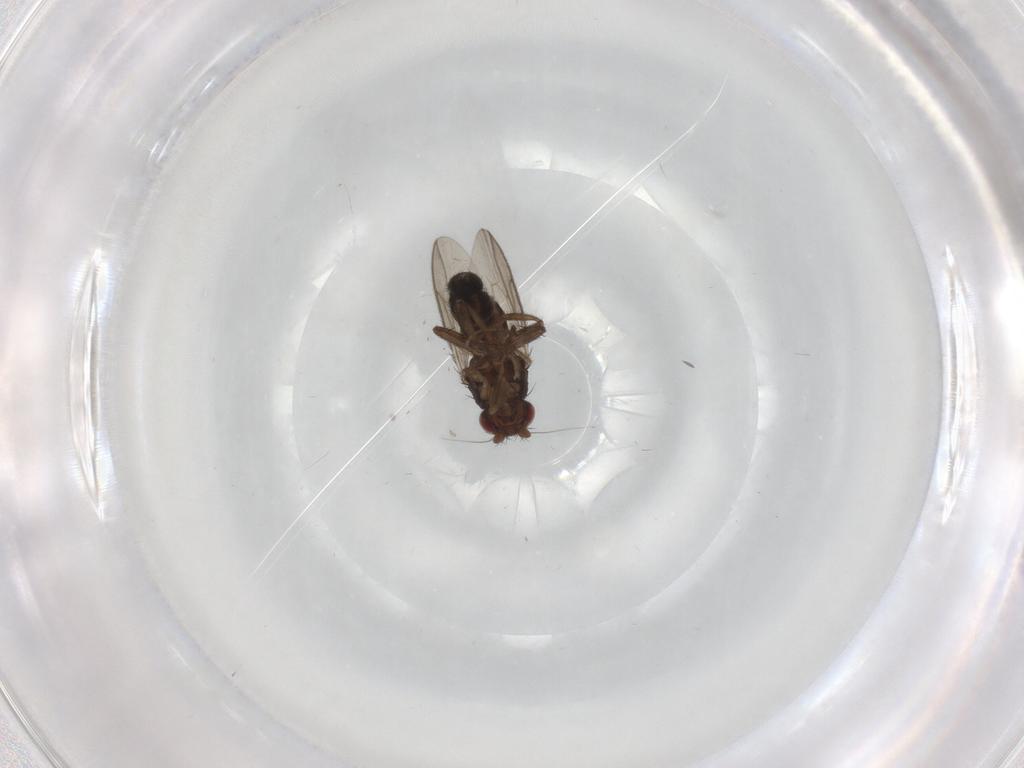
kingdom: Animalia
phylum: Arthropoda
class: Insecta
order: Diptera
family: Sphaeroceridae
